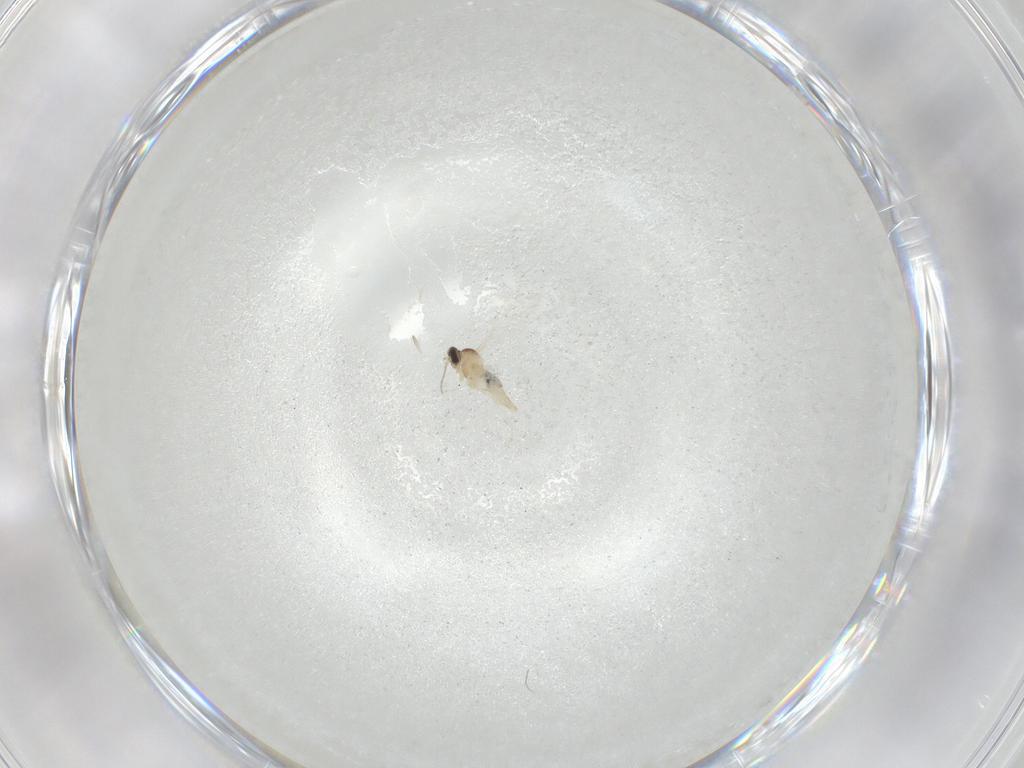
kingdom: Animalia
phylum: Arthropoda
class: Insecta
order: Diptera
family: Cecidomyiidae
